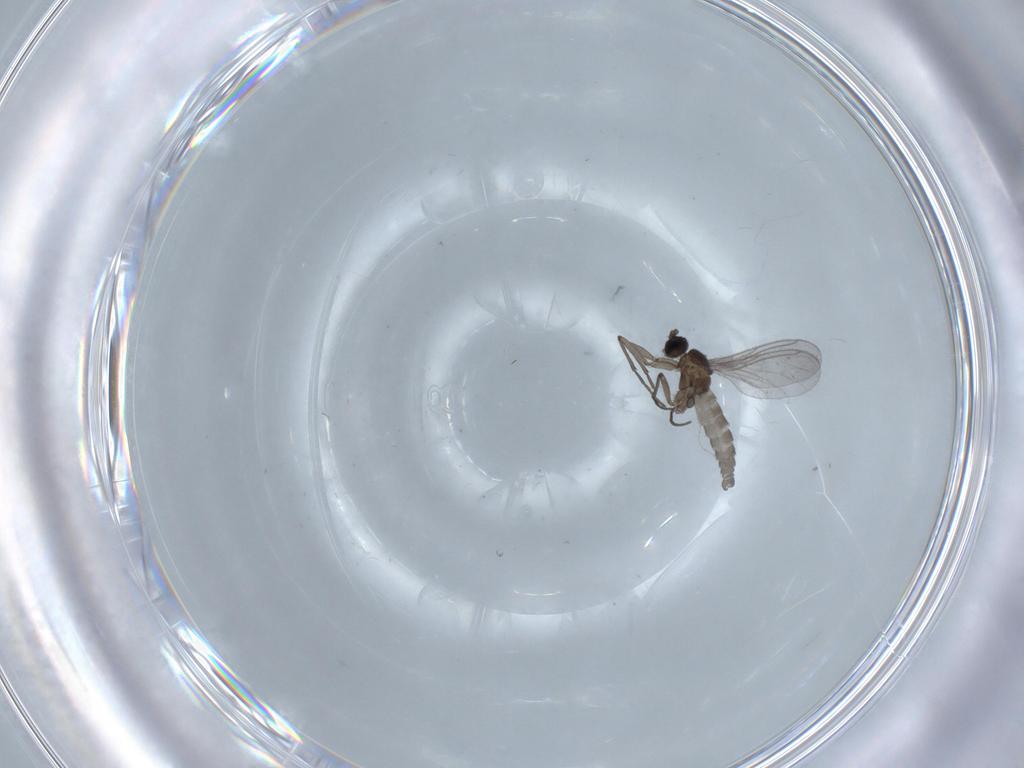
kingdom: Animalia
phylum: Arthropoda
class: Insecta
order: Diptera
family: Sciaridae
